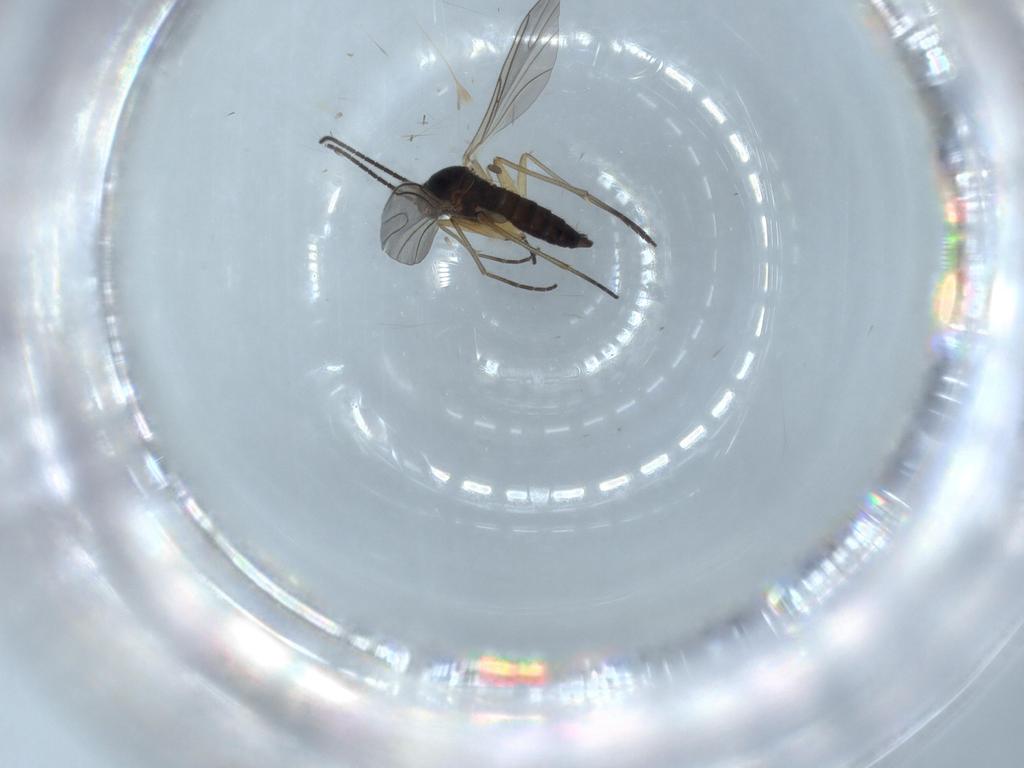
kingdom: Animalia
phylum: Arthropoda
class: Insecta
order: Diptera
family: Sciaridae
